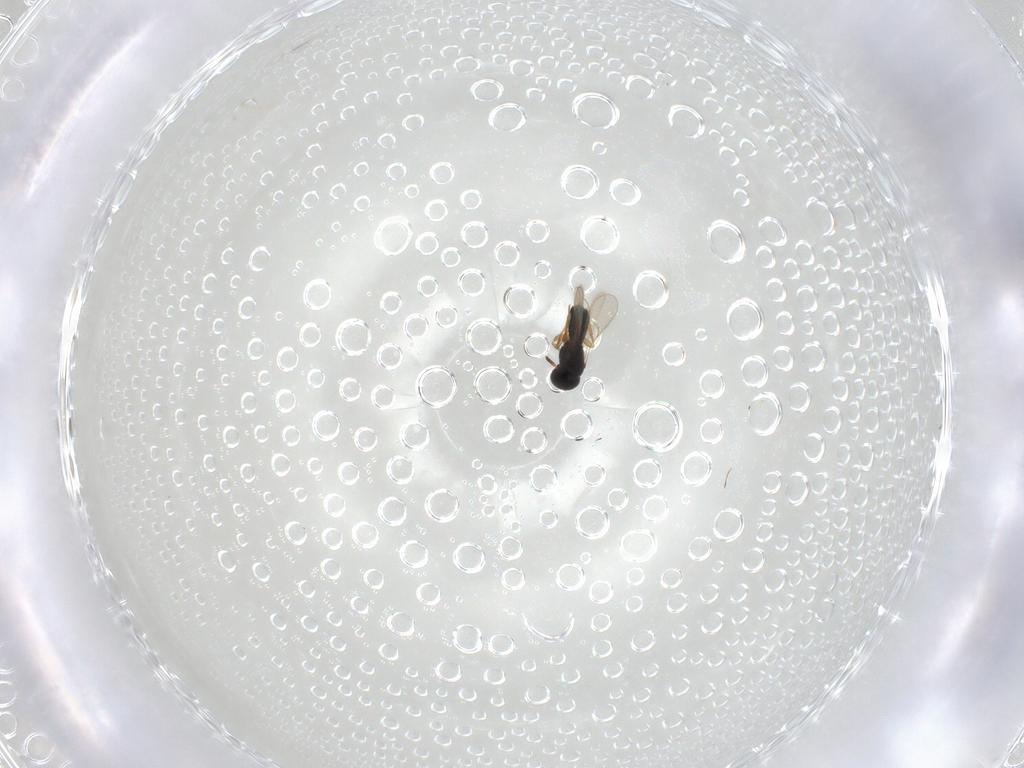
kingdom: Animalia
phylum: Arthropoda
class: Insecta
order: Hymenoptera
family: Scelionidae
